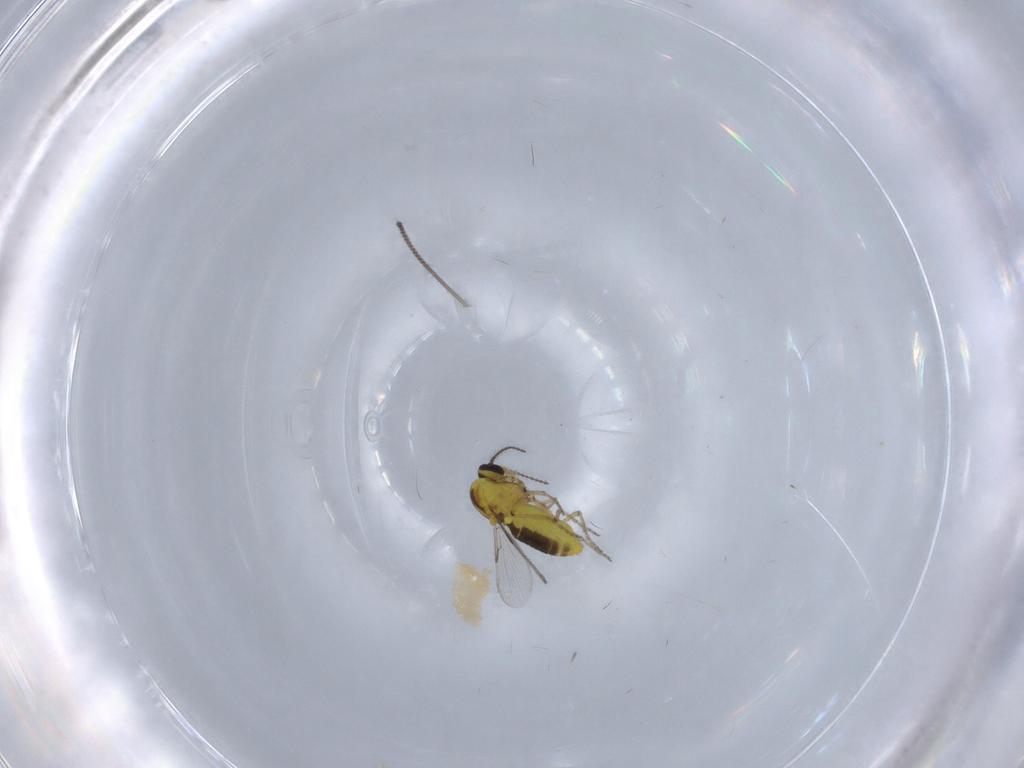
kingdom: Animalia
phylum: Arthropoda
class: Insecta
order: Diptera
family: Ceratopogonidae
